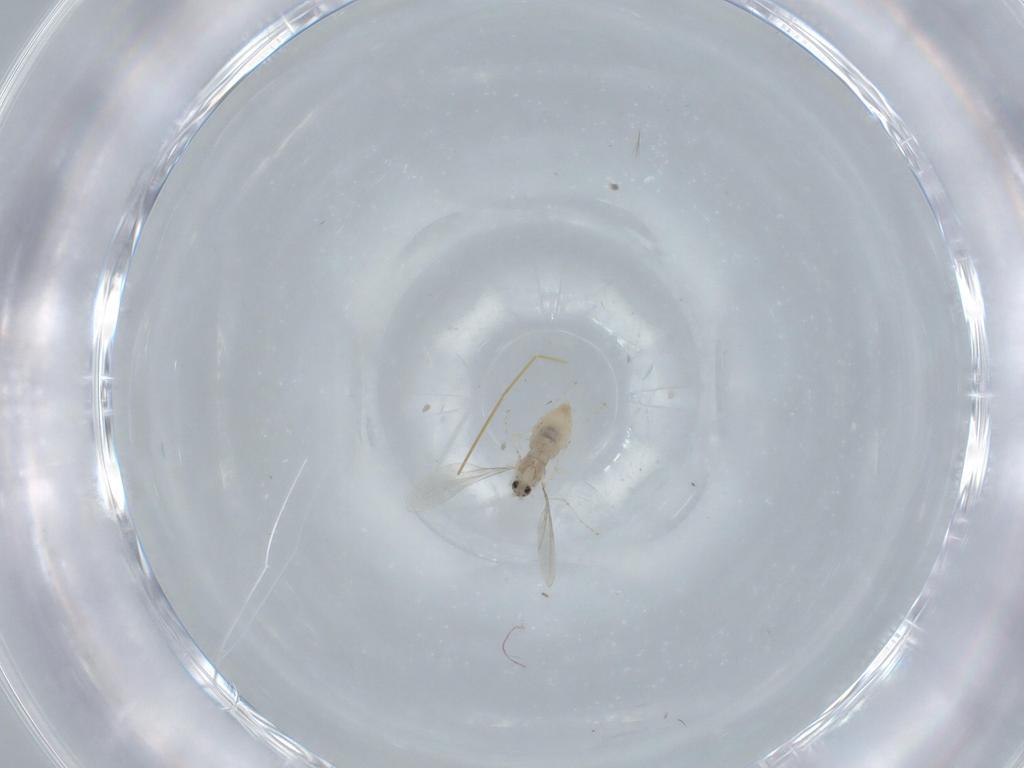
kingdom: Animalia
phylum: Arthropoda
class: Insecta
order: Diptera
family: Cecidomyiidae
